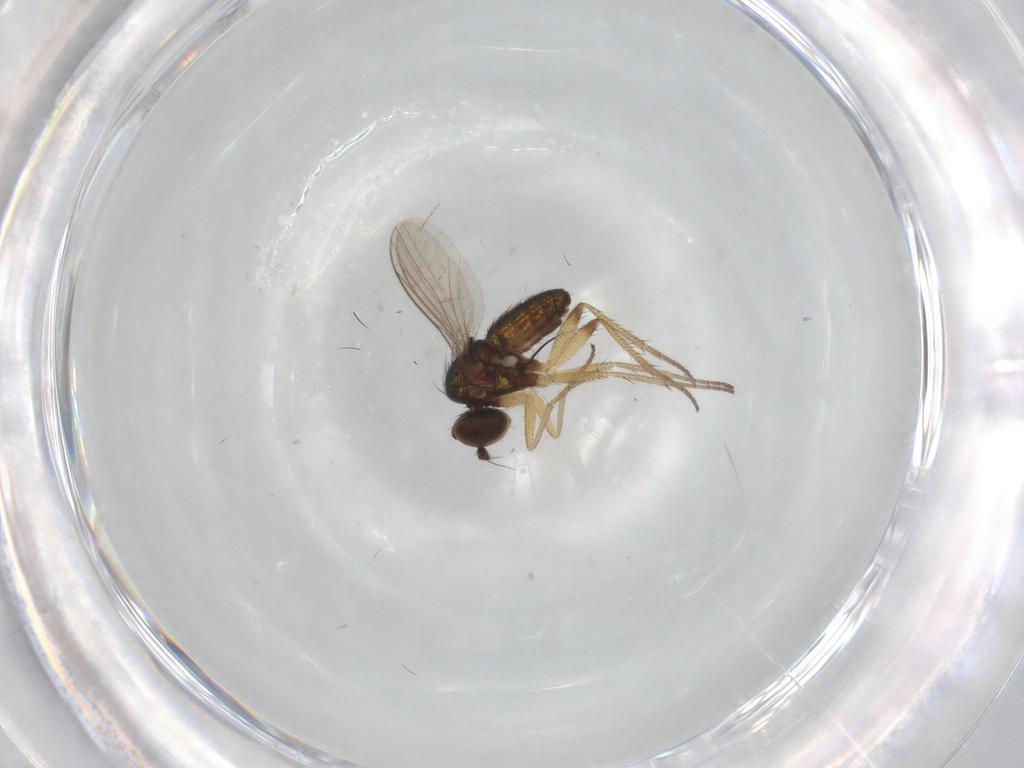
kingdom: Animalia
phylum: Arthropoda
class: Insecta
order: Diptera
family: Cecidomyiidae
